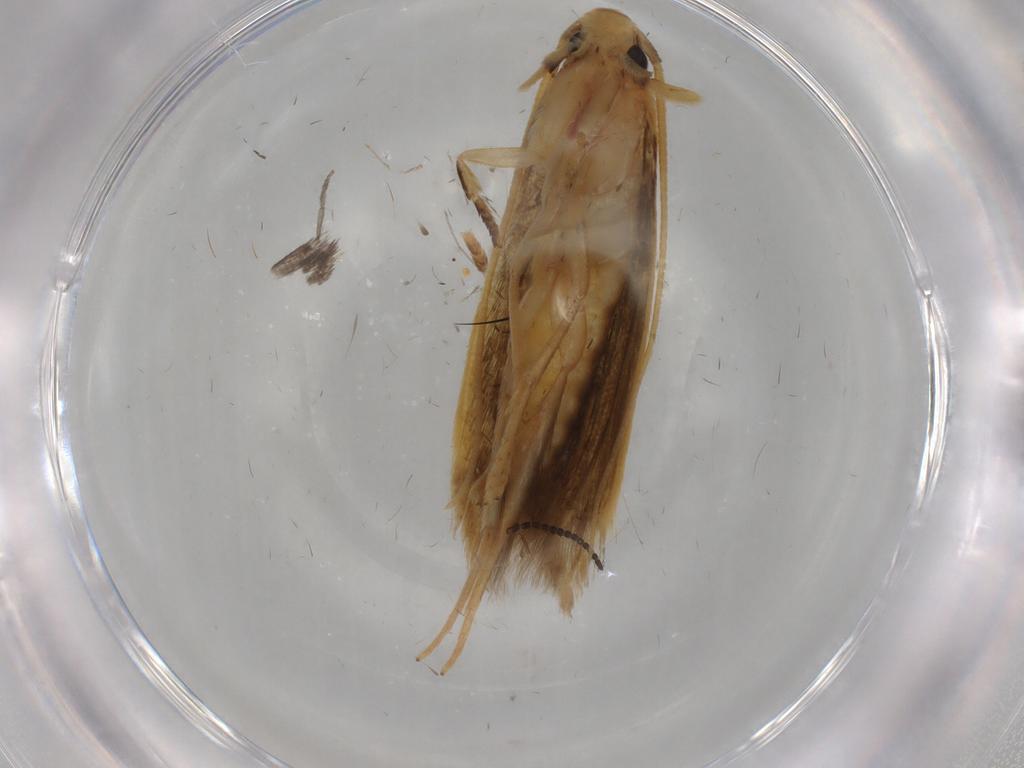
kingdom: Animalia
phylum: Arthropoda
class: Insecta
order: Lepidoptera
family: Tineidae
